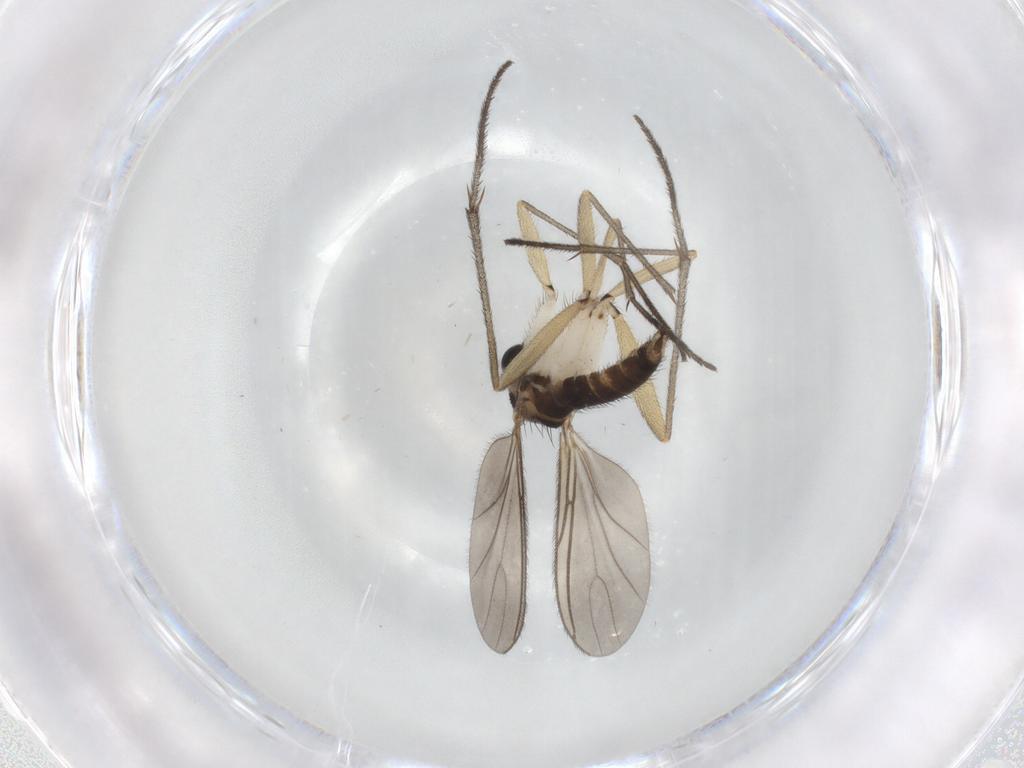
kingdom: Animalia
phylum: Arthropoda
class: Insecta
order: Diptera
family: Sciaridae
